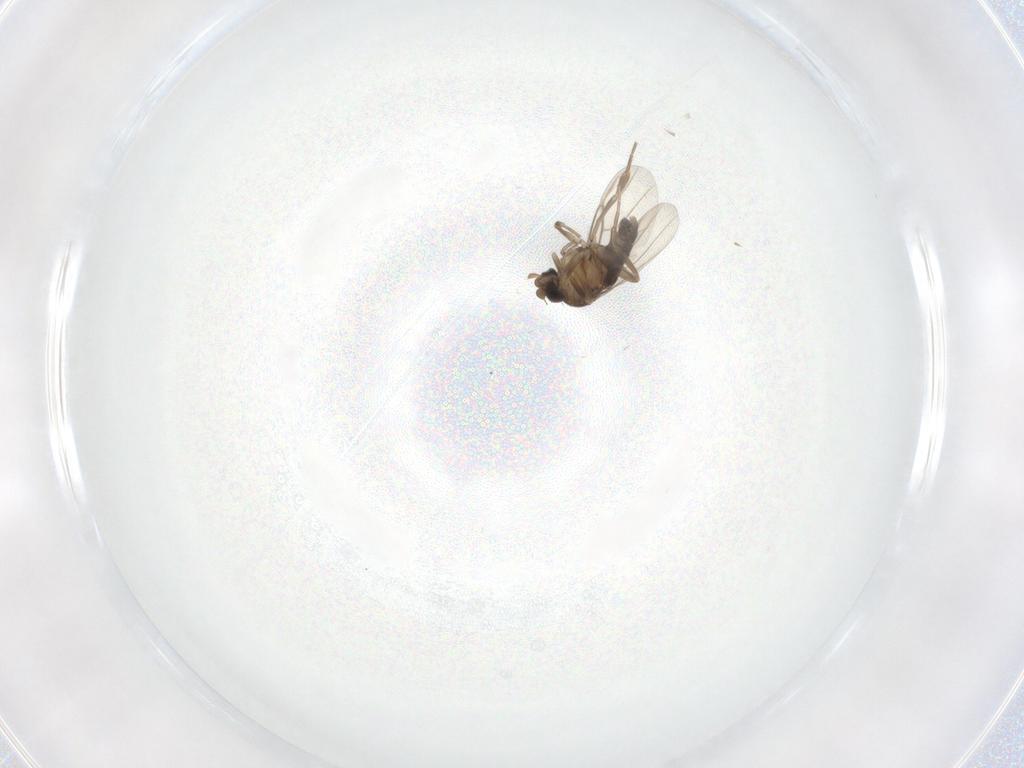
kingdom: Animalia
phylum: Arthropoda
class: Insecta
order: Diptera
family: Phoridae
